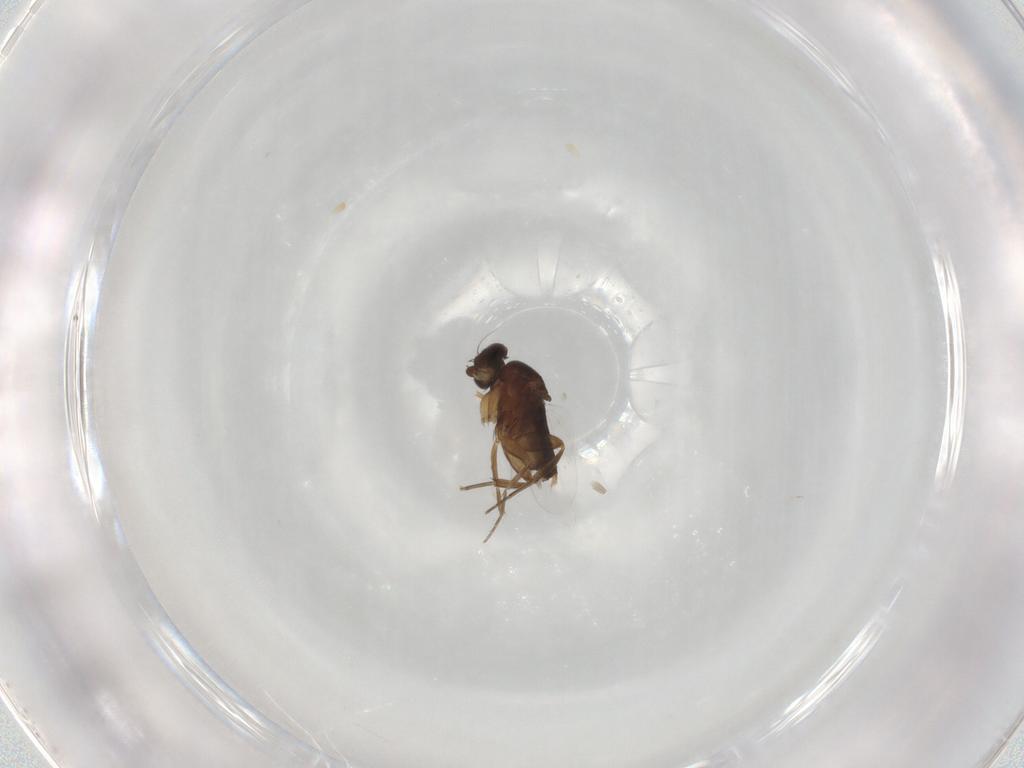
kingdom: Animalia
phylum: Arthropoda
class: Insecta
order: Diptera
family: Phoridae
